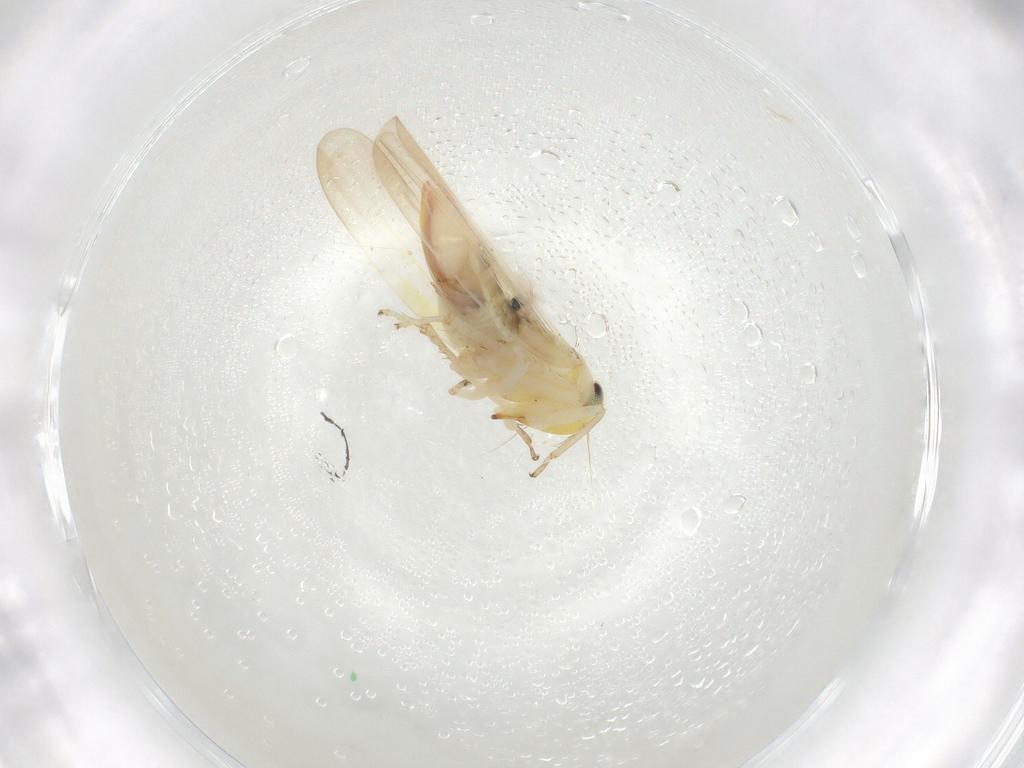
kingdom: Animalia
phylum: Arthropoda
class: Insecta
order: Hemiptera
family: Cicadellidae
